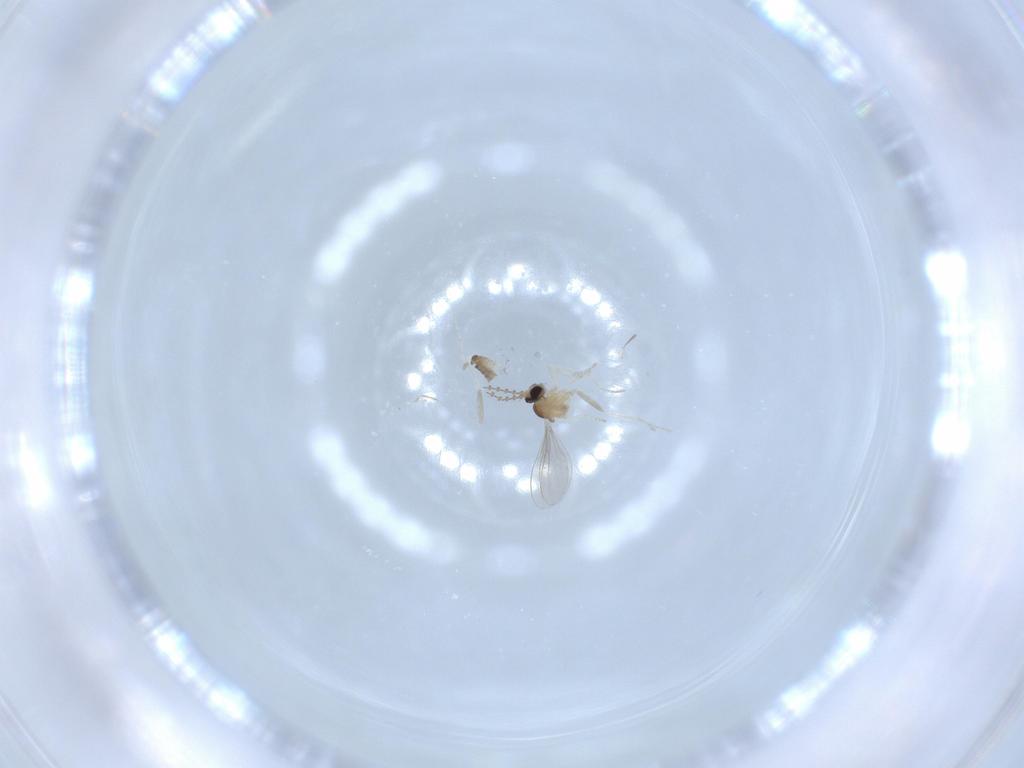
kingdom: Animalia
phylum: Arthropoda
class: Insecta
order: Diptera
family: Cecidomyiidae
